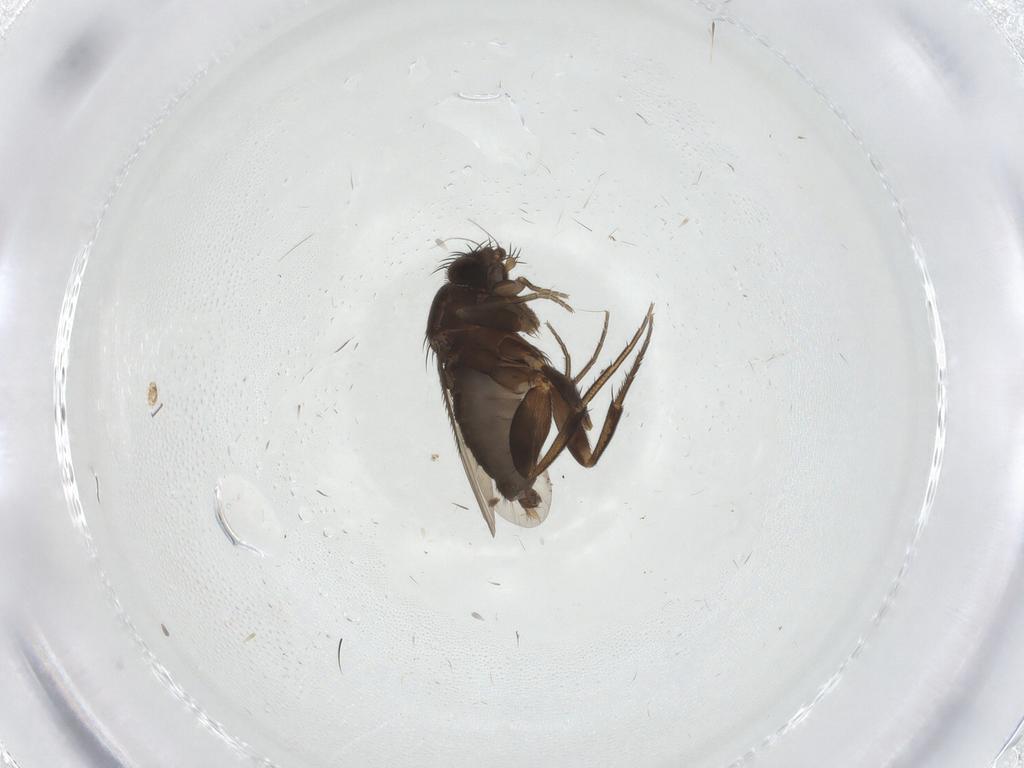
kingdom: Animalia
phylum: Arthropoda
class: Insecta
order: Diptera
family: Phoridae
